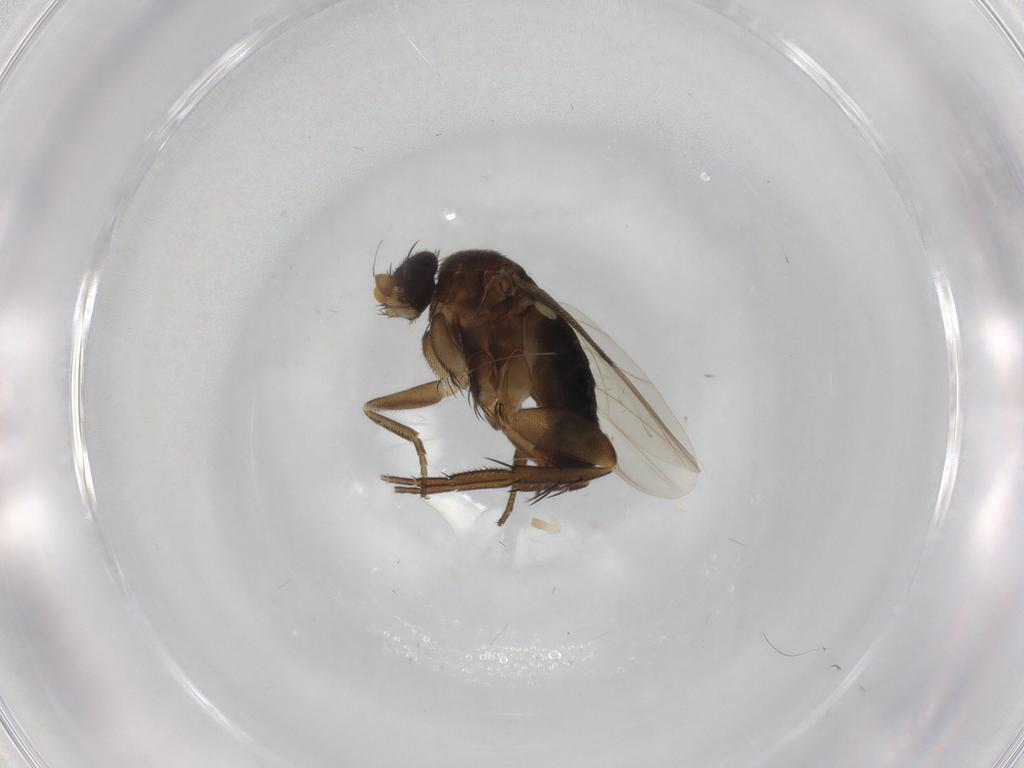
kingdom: Animalia
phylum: Arthropoda
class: Insecta
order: Diptera
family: Phoridae
